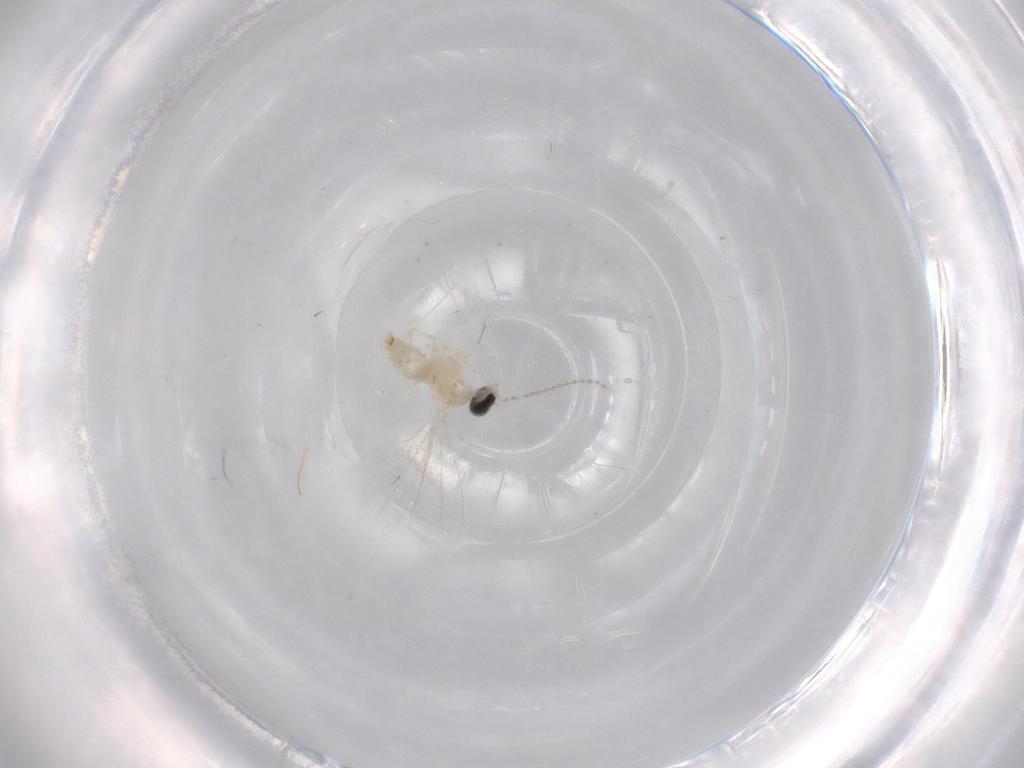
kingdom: Animalia
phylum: Arthropoda
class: Insecta
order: Diptera
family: Cecidomyiidae
